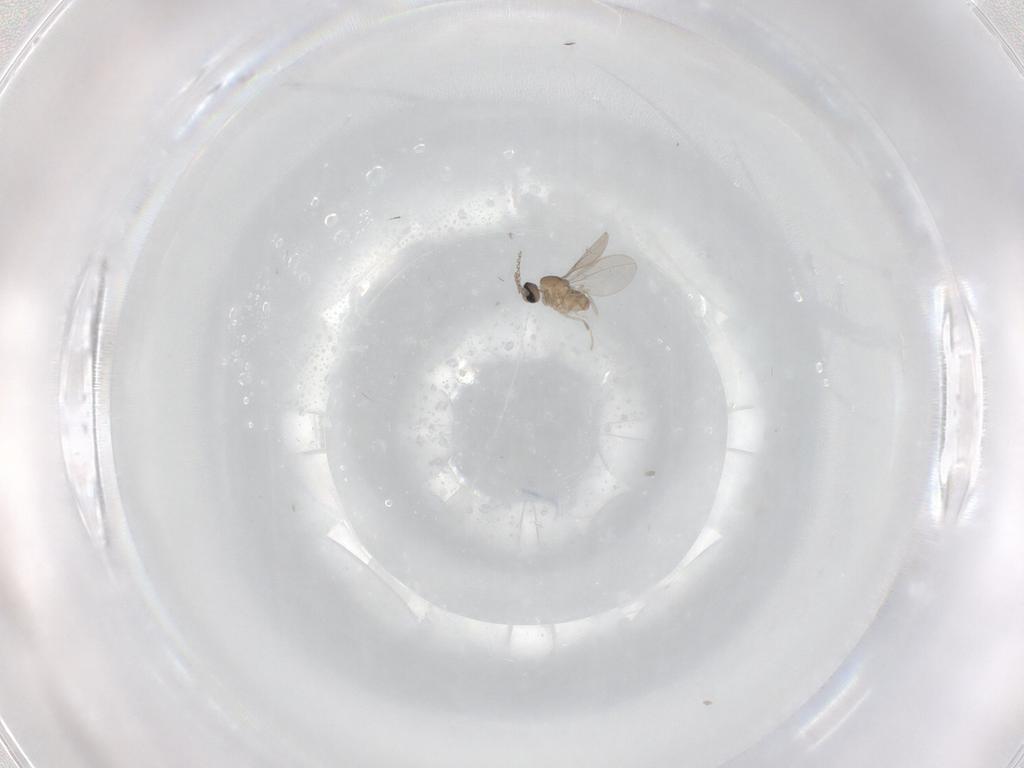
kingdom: Animalia
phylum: Arthropoda
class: Insecta
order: Diptera
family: Cecidomyiidae
